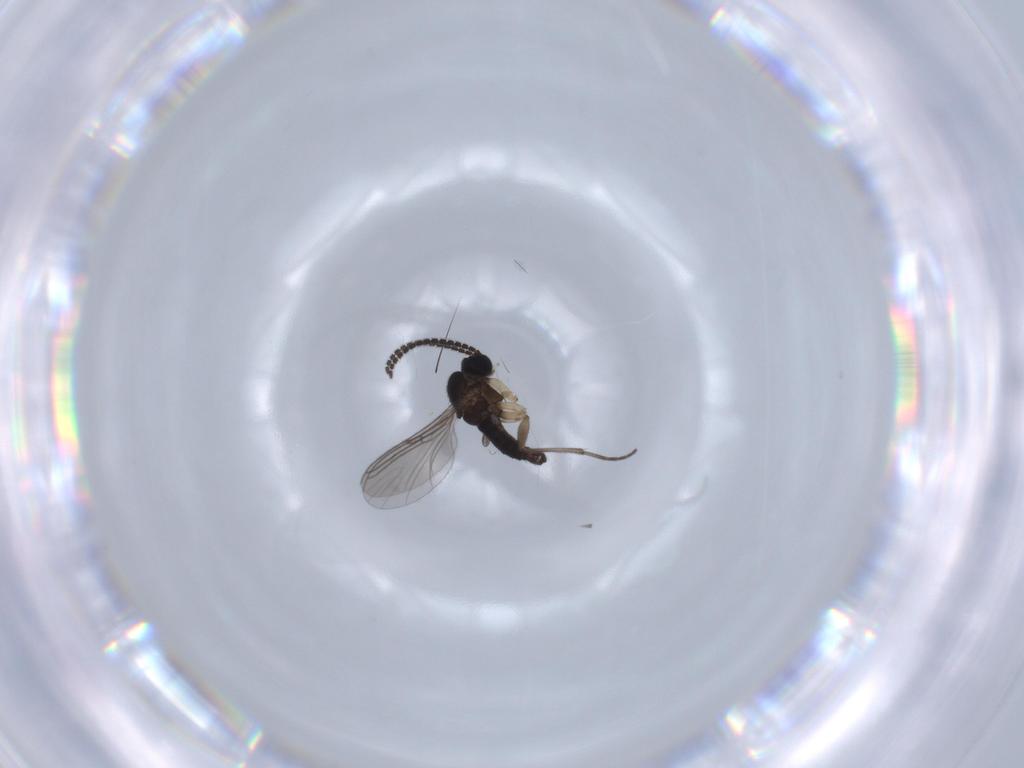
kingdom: Animalia
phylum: Arthropoda
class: Insecta
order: Diptera
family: Sciaridae
